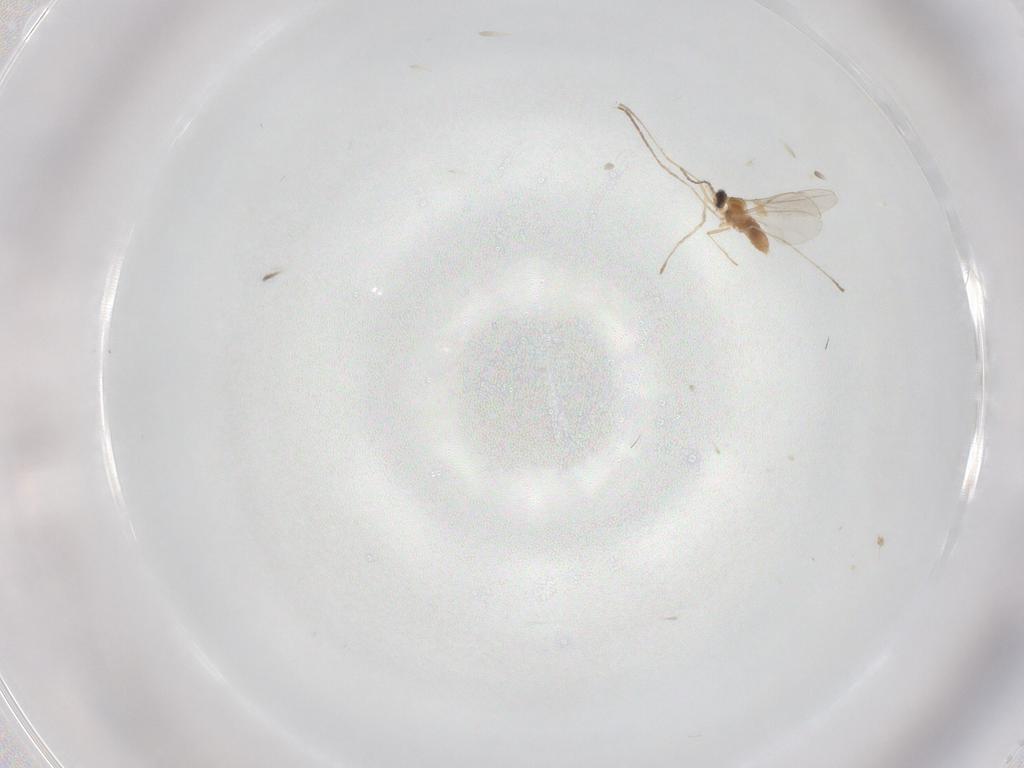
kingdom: Animalia
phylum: Arthropoda
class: Insecta
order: Diptera
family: Cecidomyiidae
